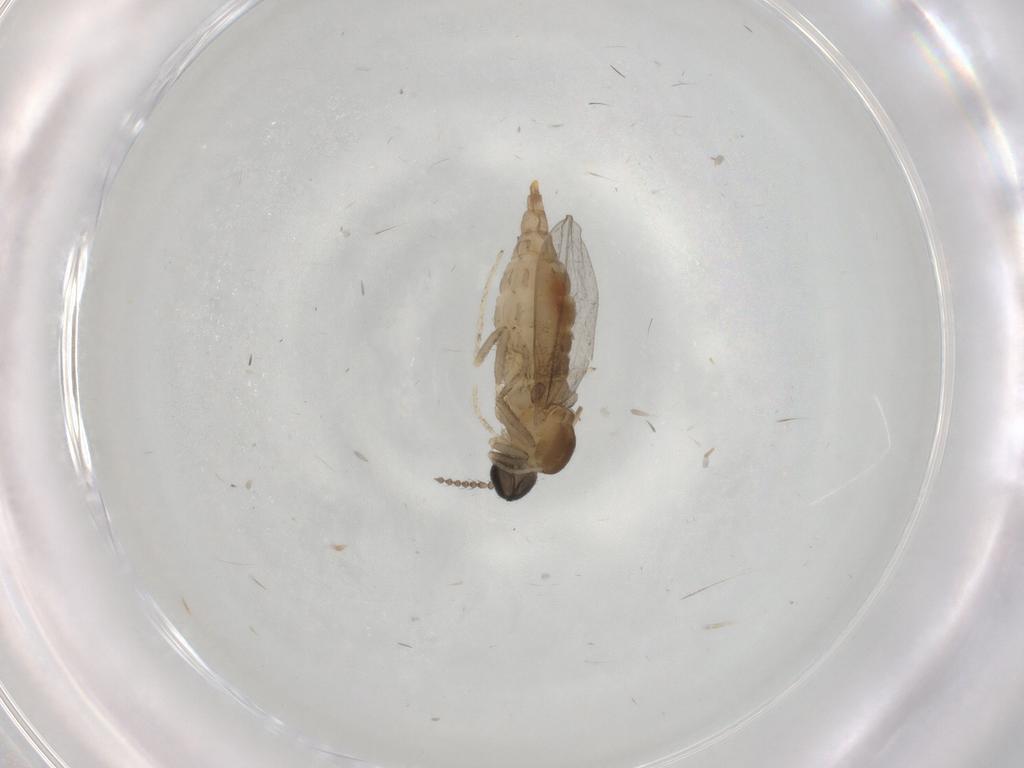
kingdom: Animalia
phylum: Arthropoda
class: Insecta
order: Diptera
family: Cecidomyiidae
